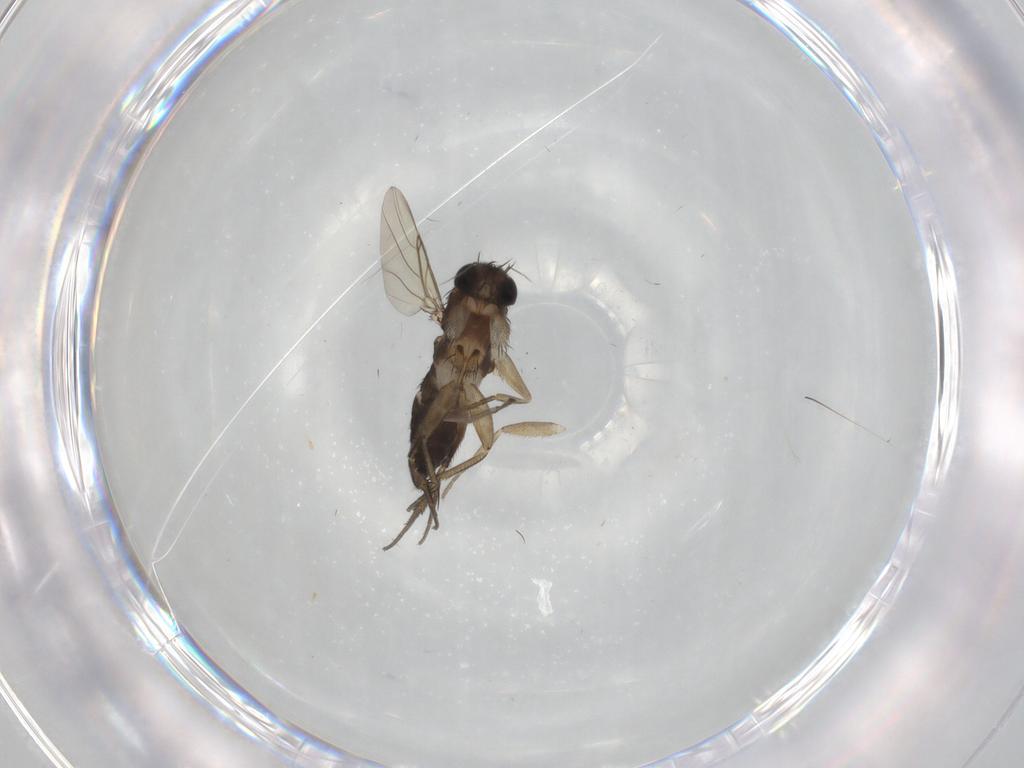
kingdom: Animalia
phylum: Arthropoda
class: Insecta
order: Diptera
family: Phoridae
